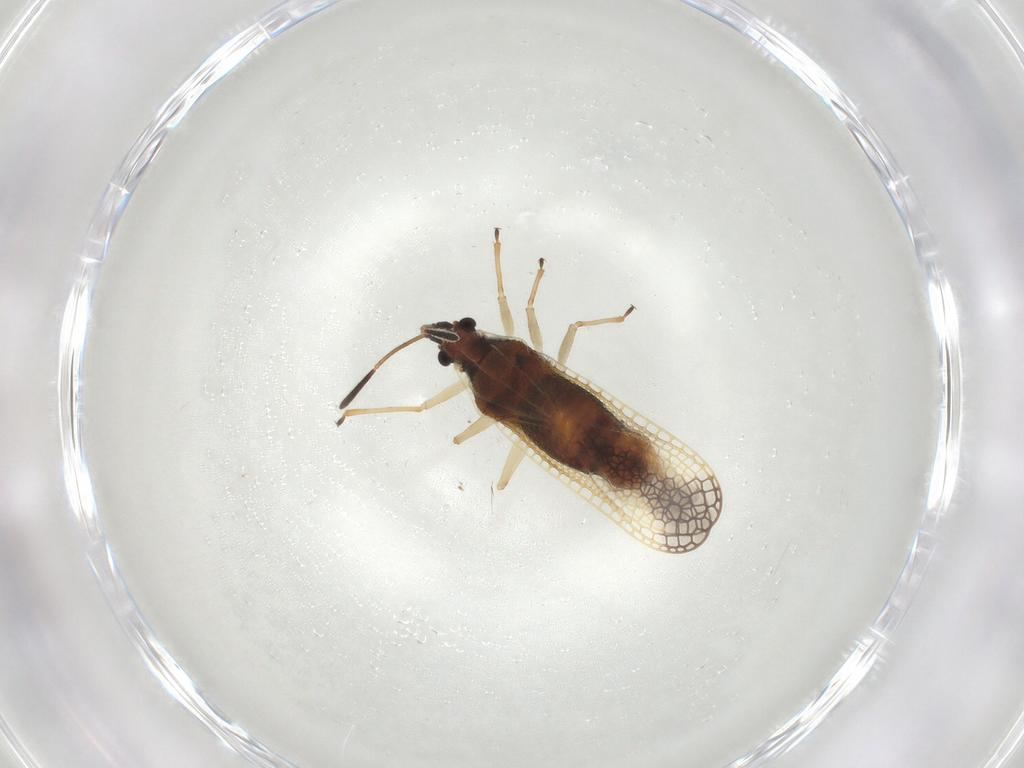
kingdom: Animalia
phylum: Arthropoda
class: Insecta
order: Hemiptera
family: Tingidae
